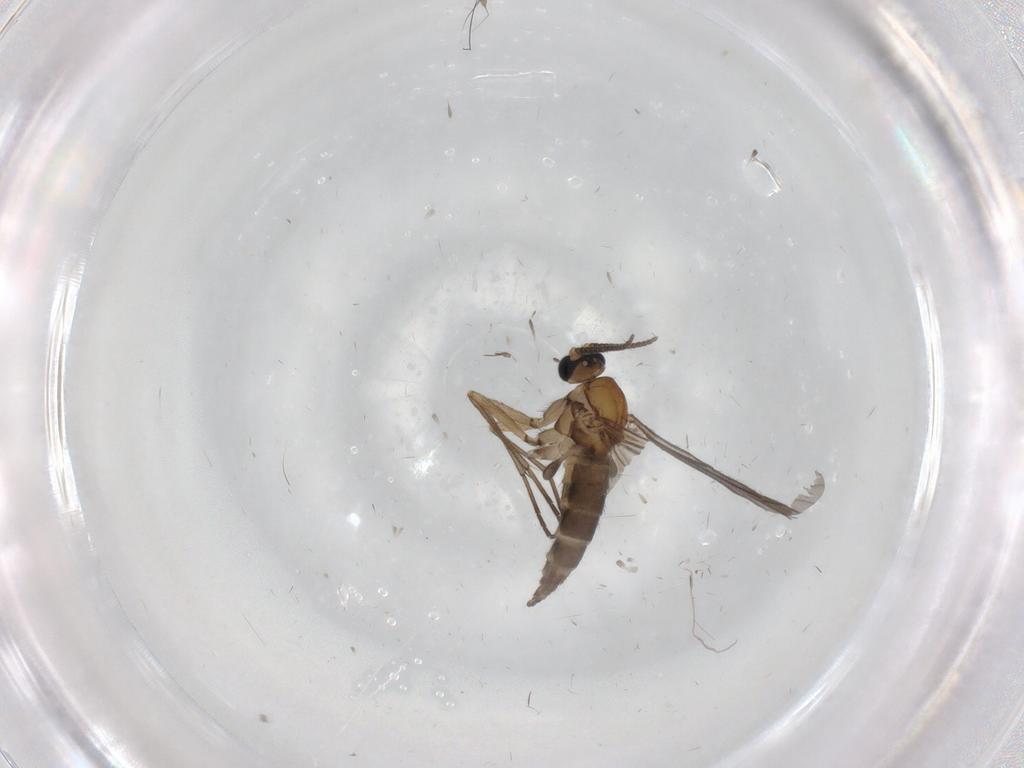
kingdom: Animalia
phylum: Arthropoda
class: Insecta
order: Diptera
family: Sciaridae
